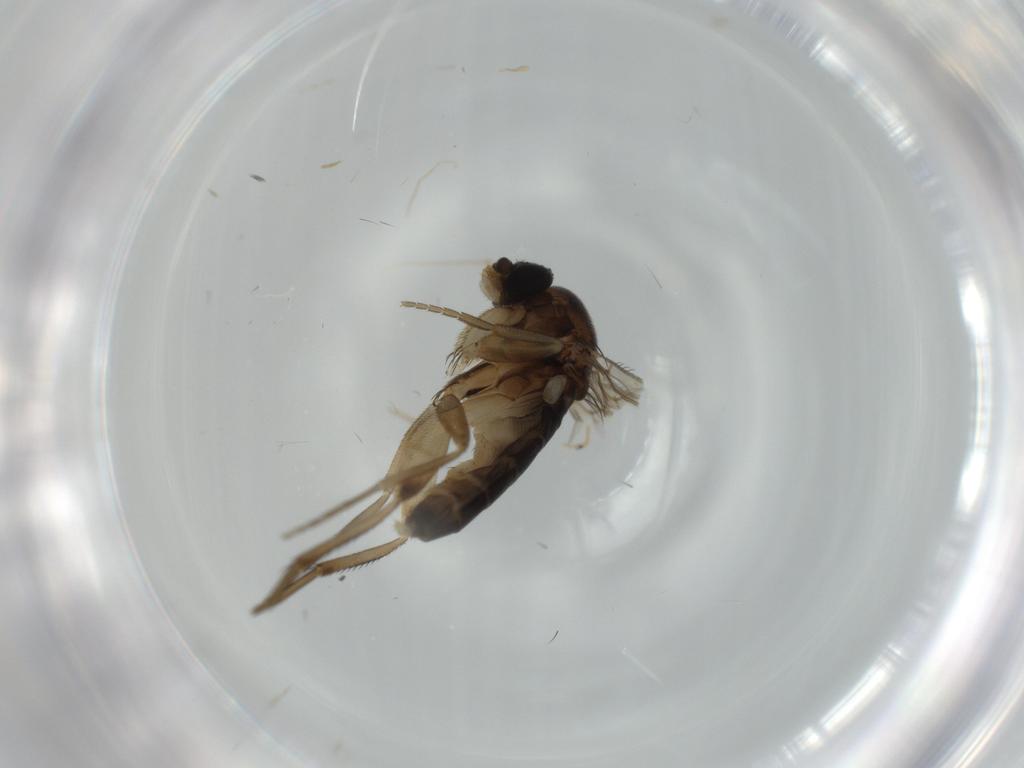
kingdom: Animalia
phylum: Arthropoda
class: Insecta
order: Diptera
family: Phoridae
